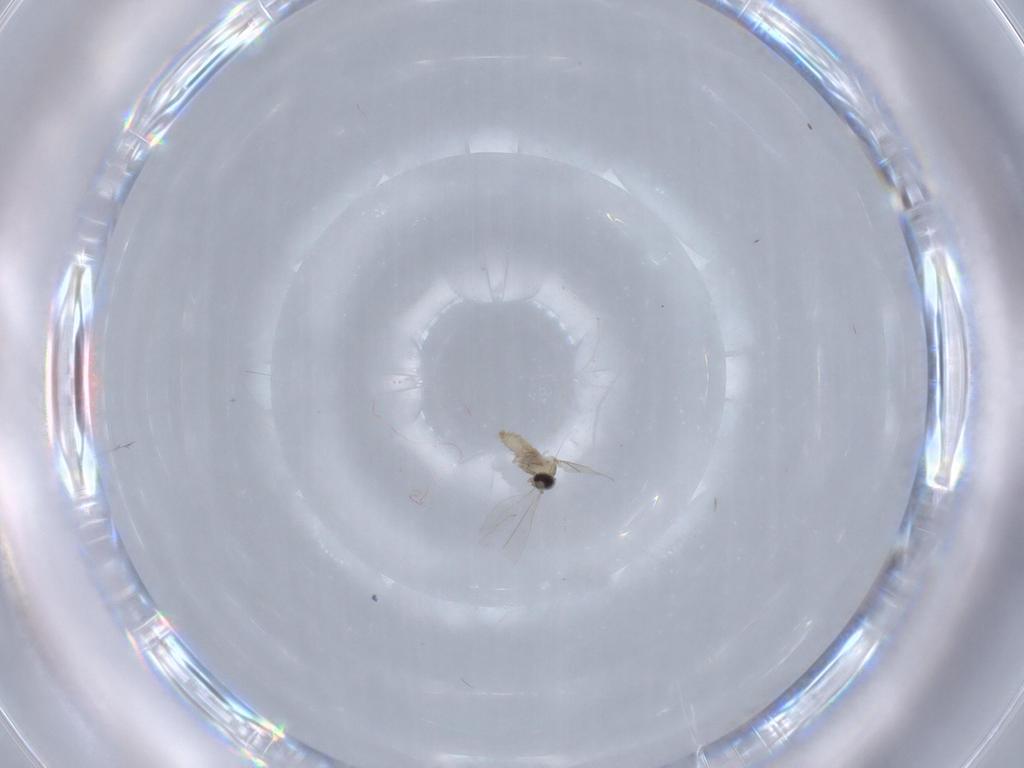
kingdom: Animalia
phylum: Arthropoda
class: Insecta
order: Diptera
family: Cecidomyiidae
